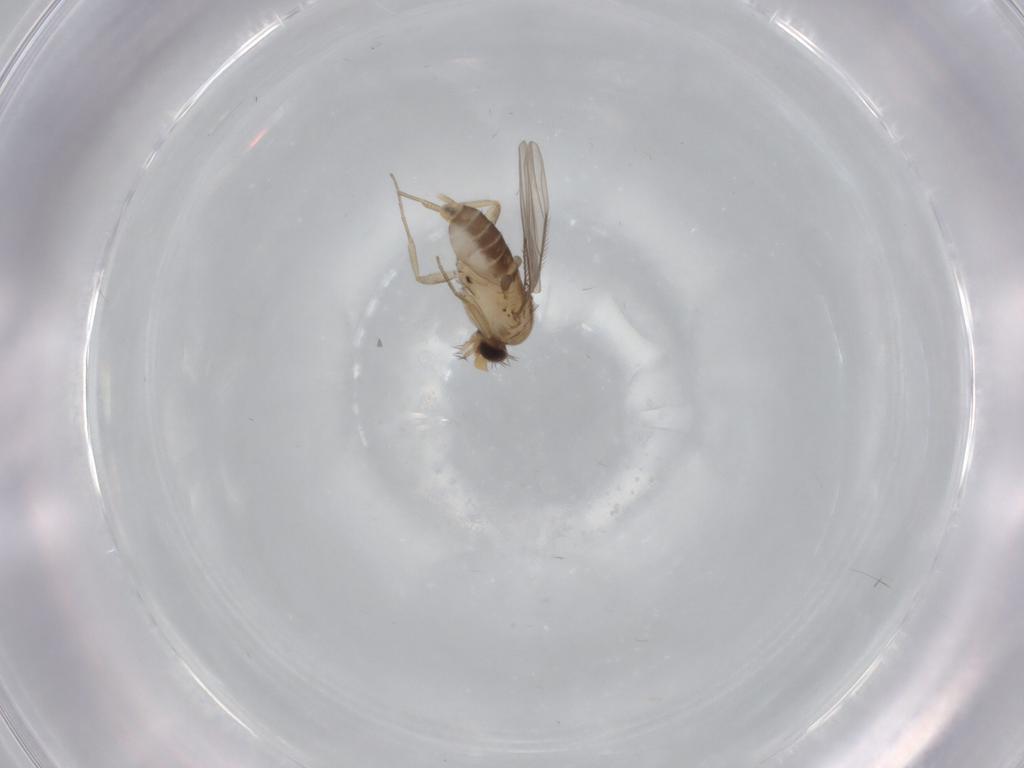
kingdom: Animalia
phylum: Arthropoda
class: Insecta
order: Diptera
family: Phoridae
